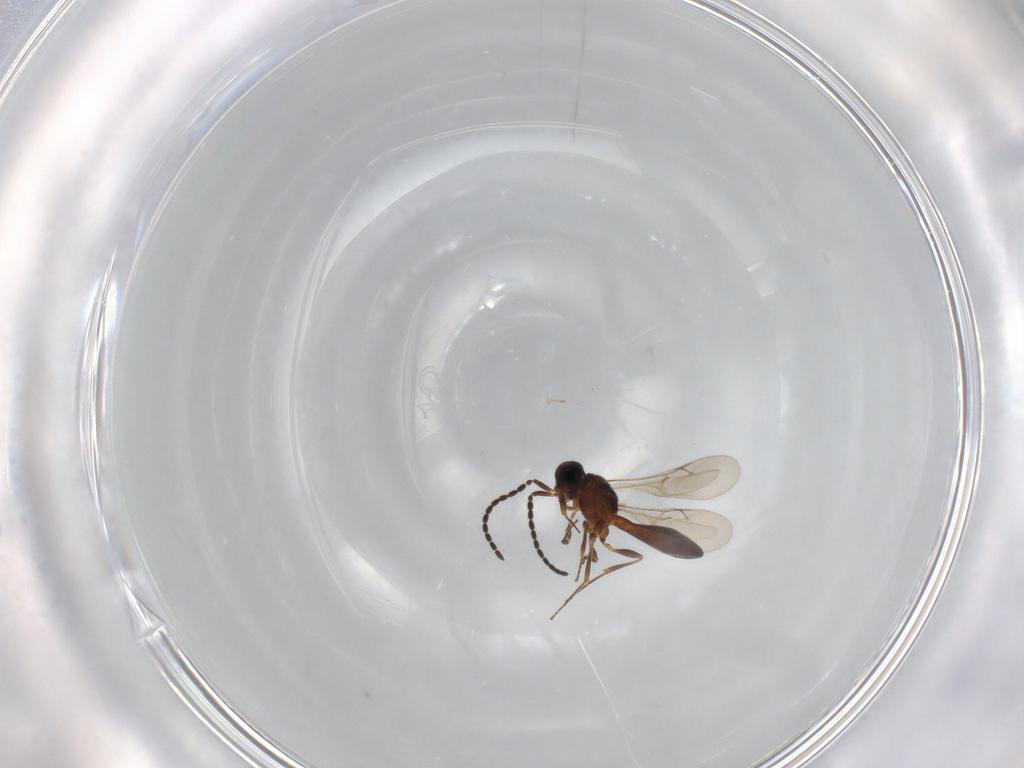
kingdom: Animalia
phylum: Arthropoda
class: Insecta
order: Hymenoptera
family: Scelionidae
